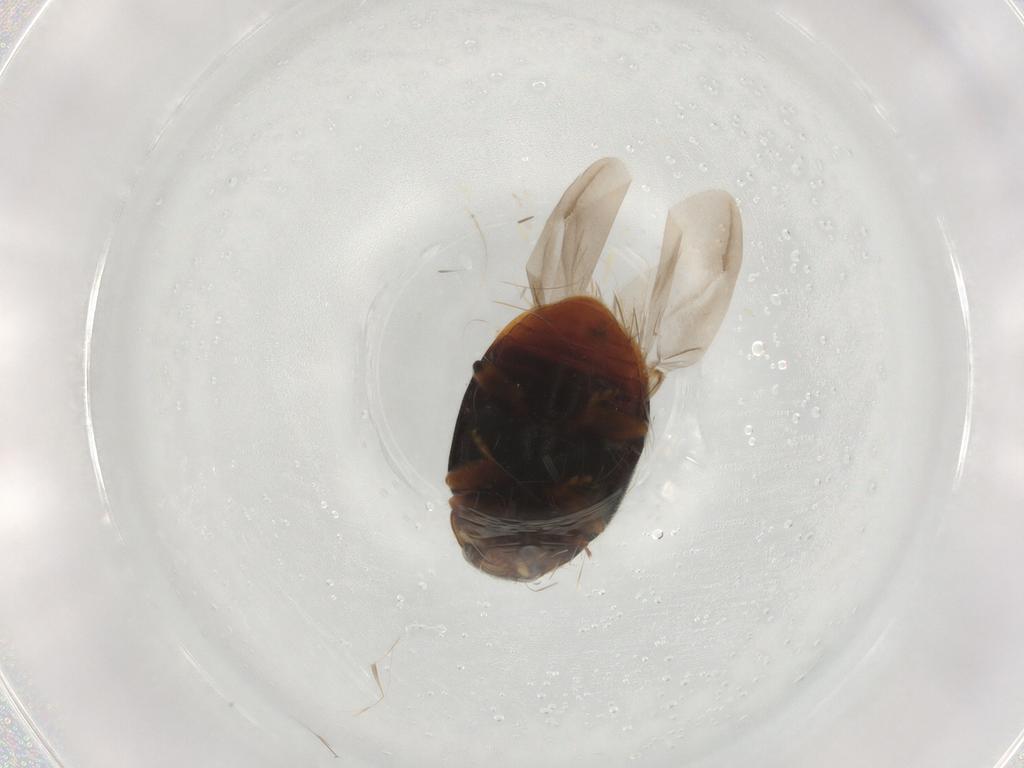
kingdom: Animalia
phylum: Arthropoda
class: Insecta
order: Coleoptera
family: Coccinellidae
